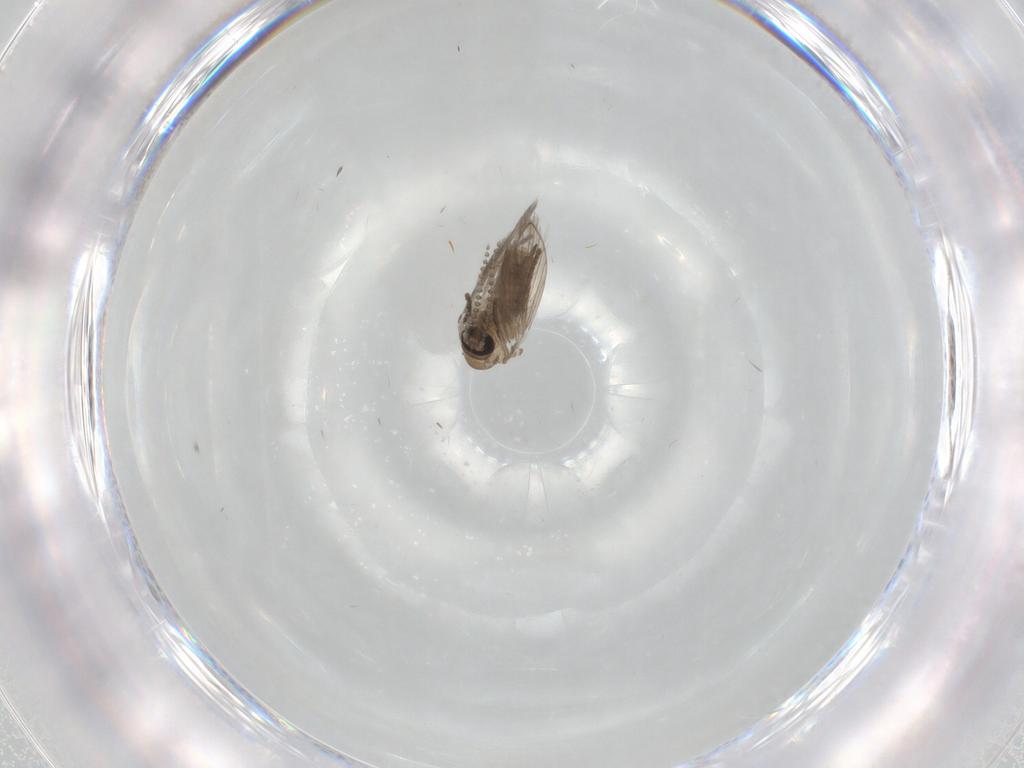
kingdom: Animalia
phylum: Arthropoda
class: Insecta
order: Diptera
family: Psychodidae
